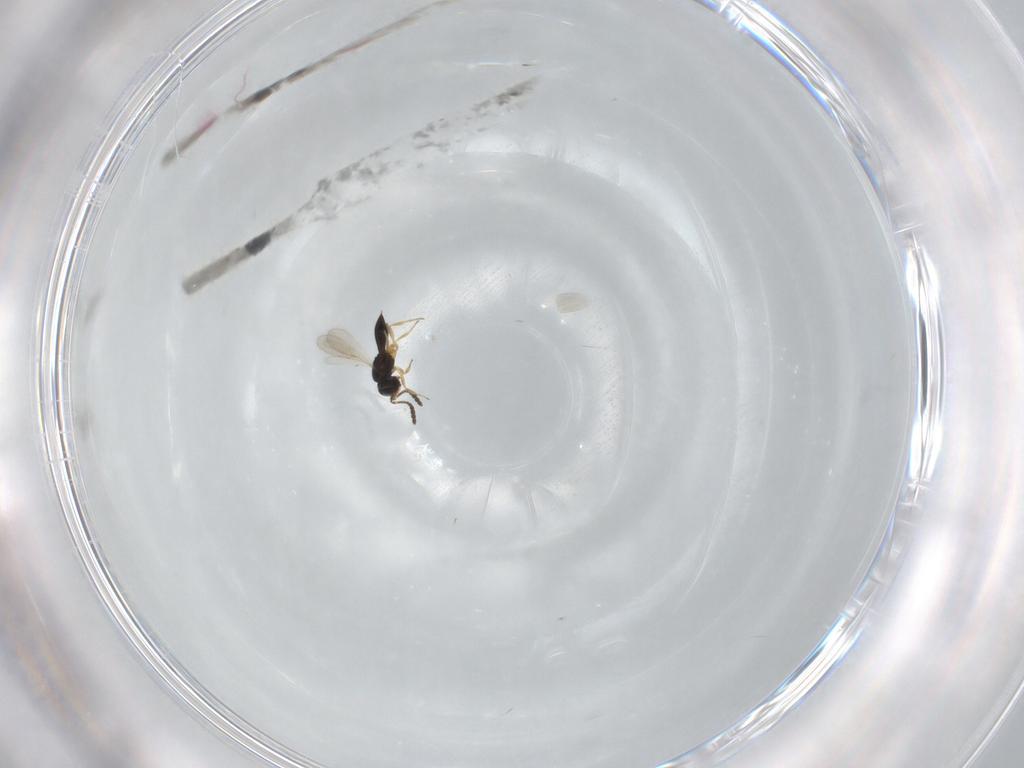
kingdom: Animalia
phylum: Arthropoda
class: Insecta
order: Hymenoptera
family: Scelionidae
